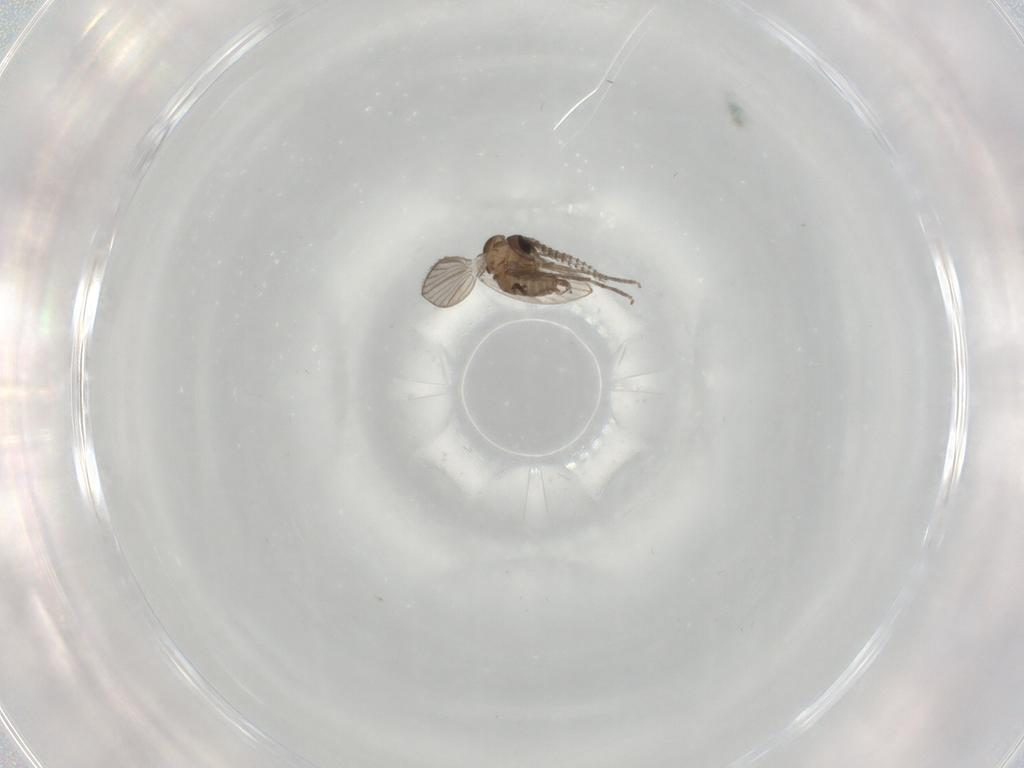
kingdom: Animalia
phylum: Arthropoda
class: Insecta
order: Diptera
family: Psychodidae
